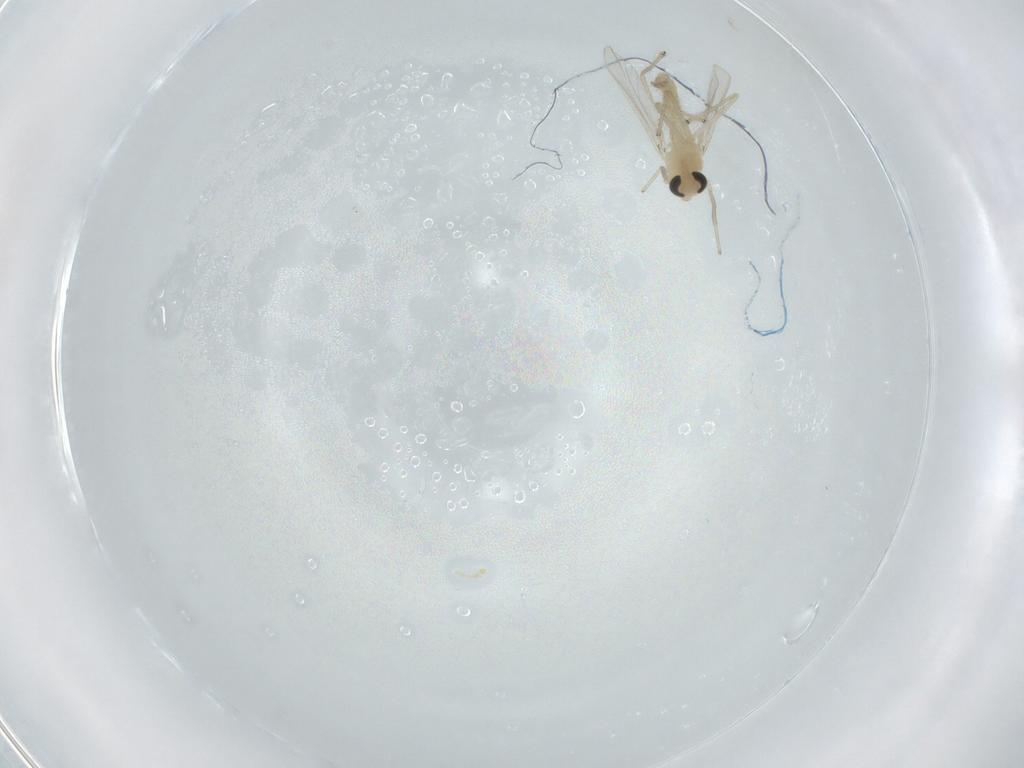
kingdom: Animalia
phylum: Arthropoda
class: Insecta
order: Diptera
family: Chironomidae
